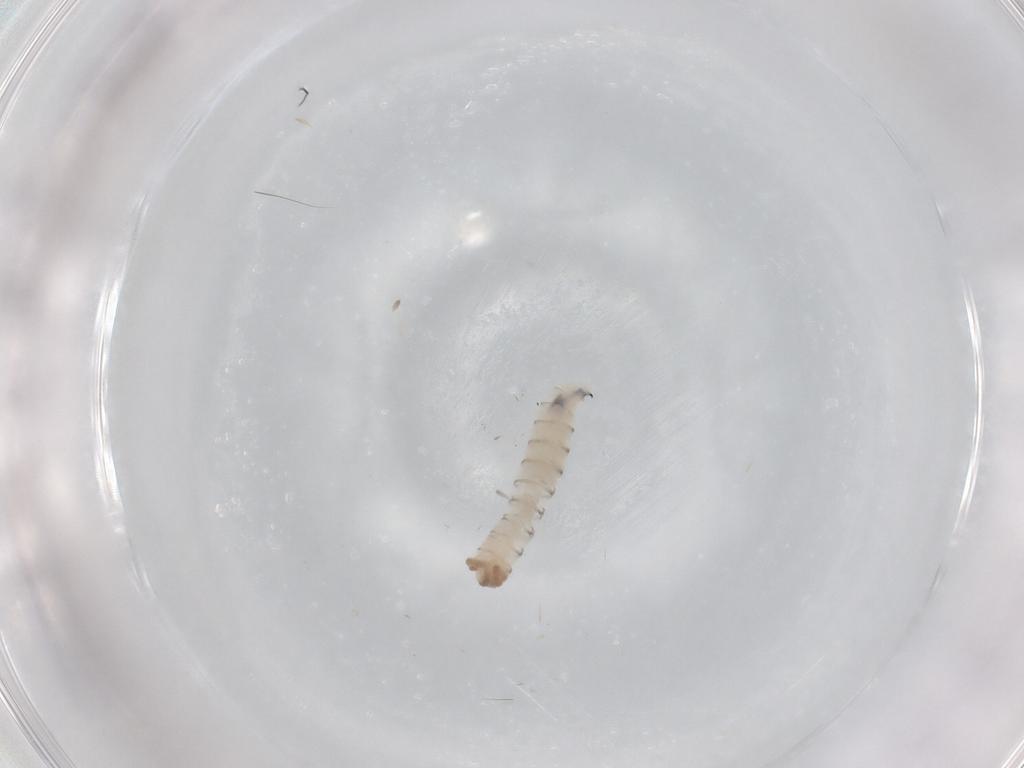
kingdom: Animalia
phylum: Arthropoda
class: Insecta
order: Diptera
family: Sarcophagidae
